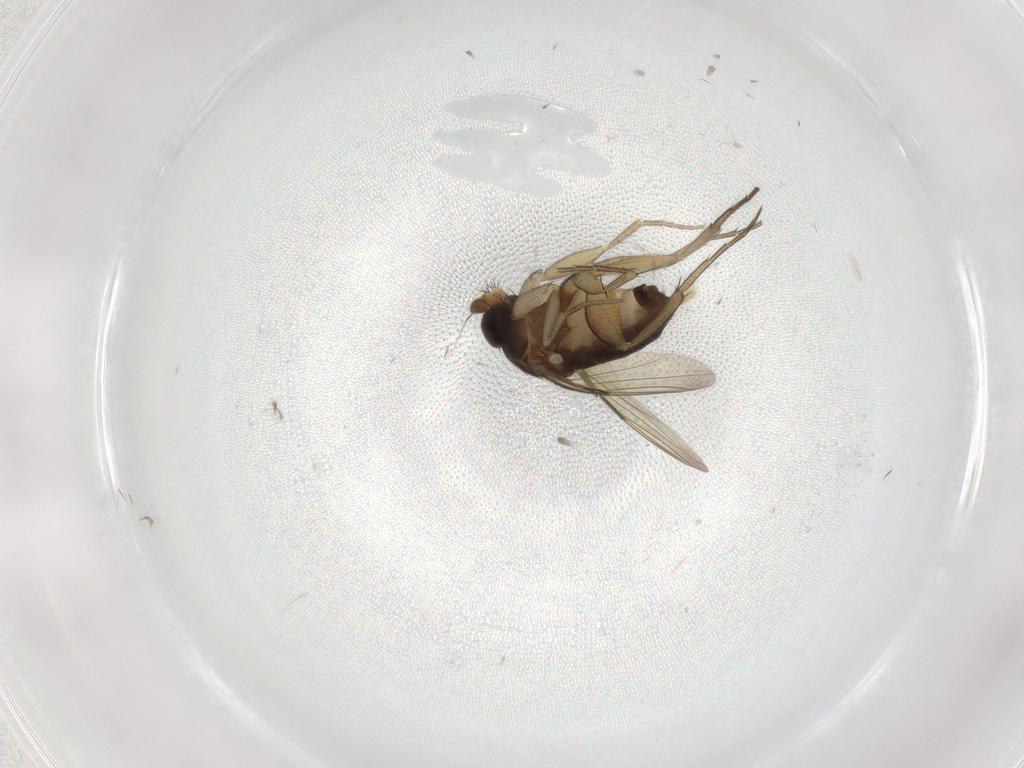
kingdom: Animalia
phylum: Arthropoda
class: Insecta
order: Diptera
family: Phoridae
